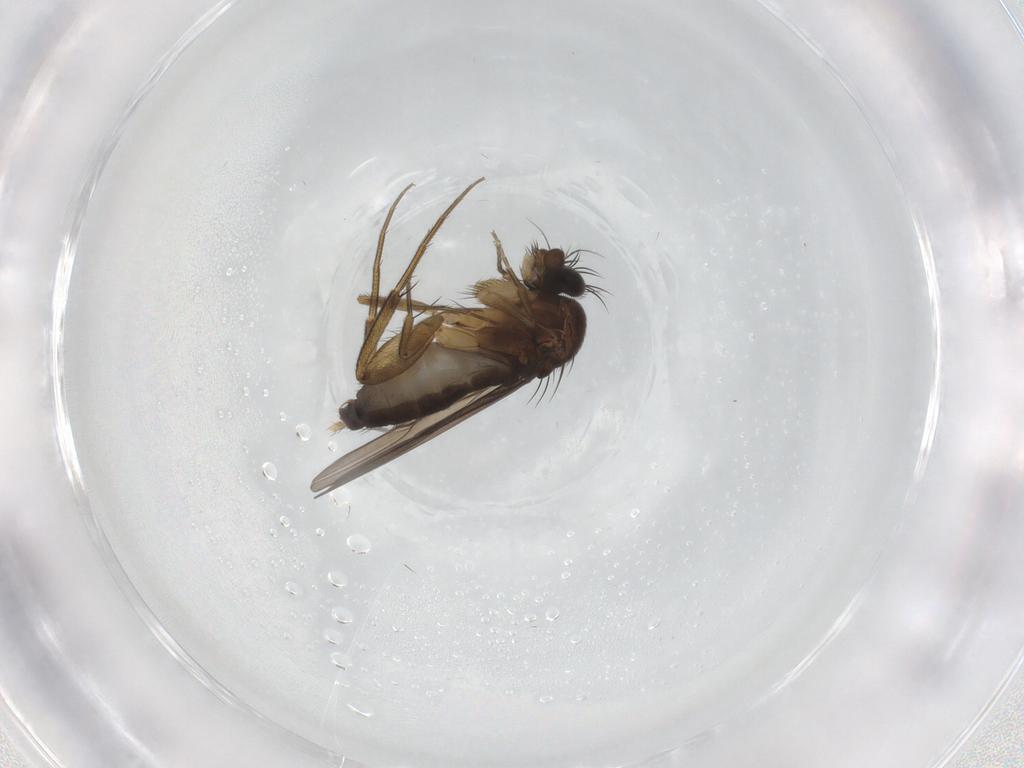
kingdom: Animalia
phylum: Arthropoda
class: Insecta
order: Diptera
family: Phoridae
